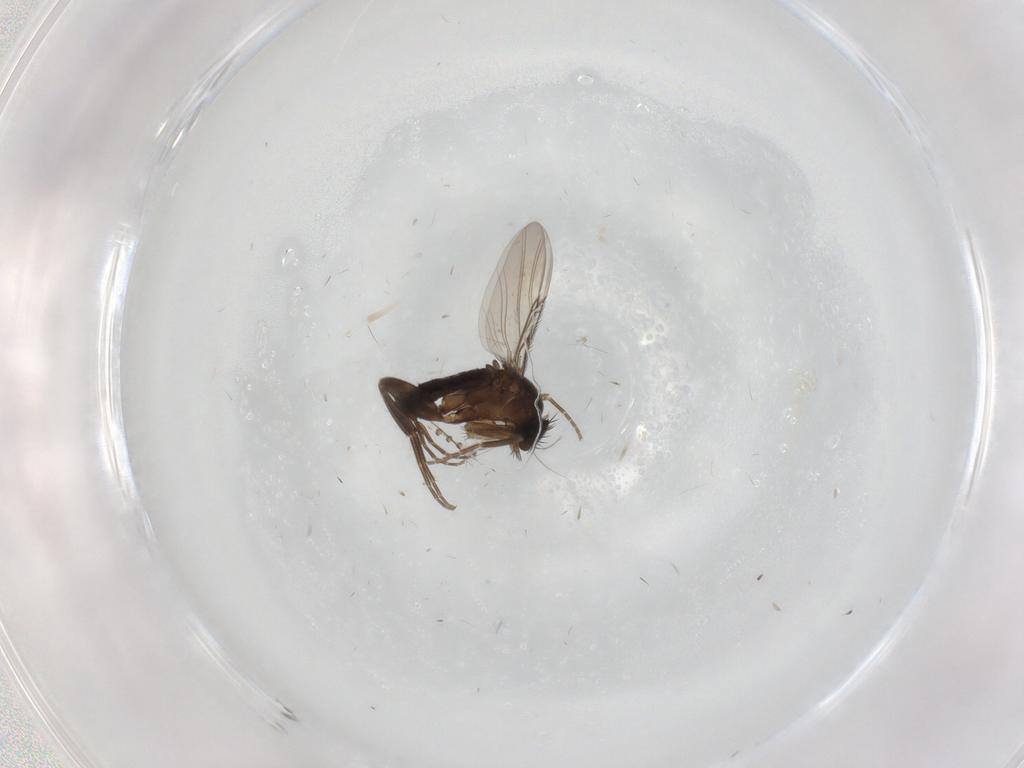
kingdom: Animalia
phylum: Arthropoda
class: Insecta
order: Diptera
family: Phoridae
